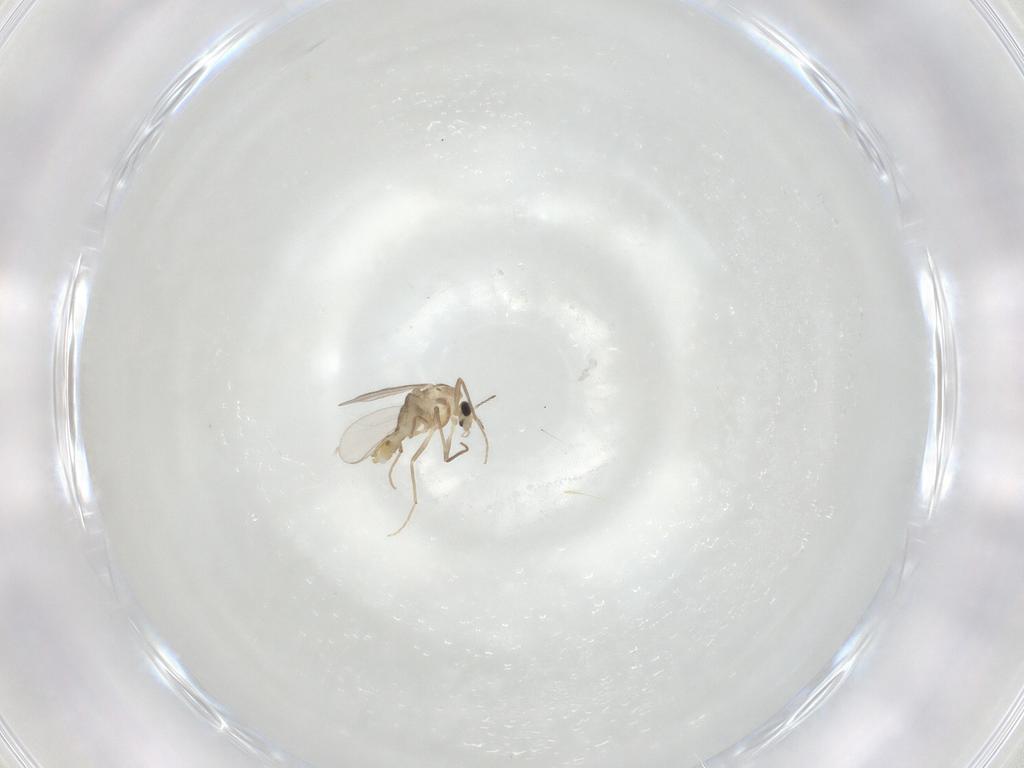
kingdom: Animalia
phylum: Arthropoda
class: Insecta
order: Diptera
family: Chironomidae
